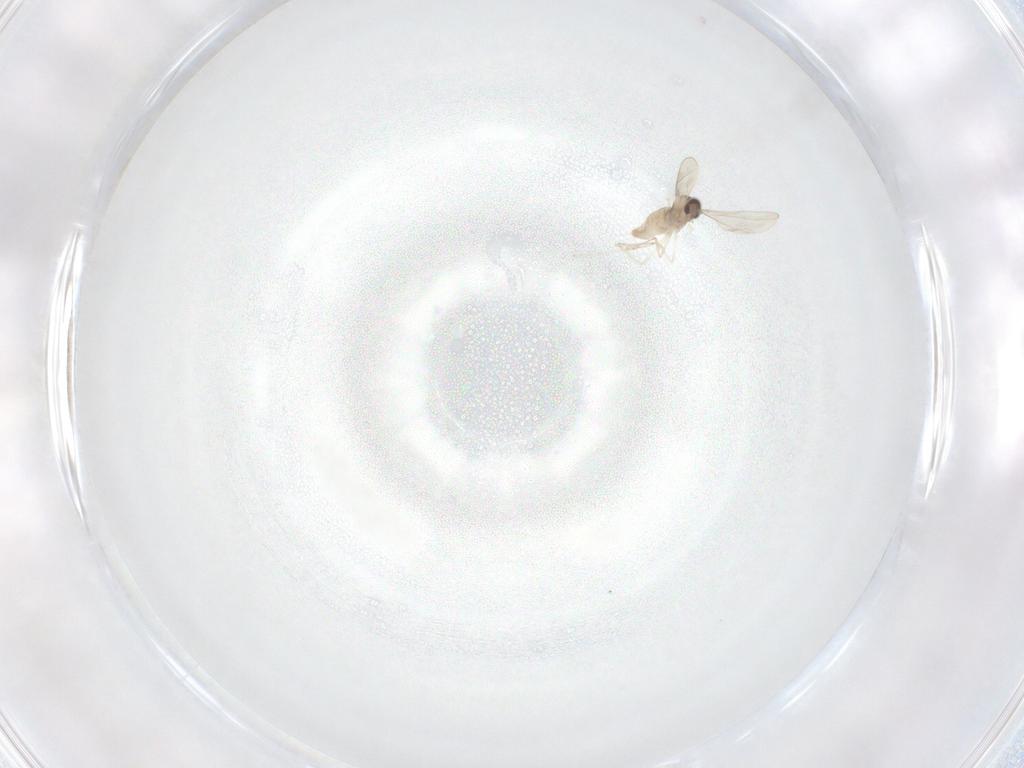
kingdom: Animalia
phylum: Arthropoda
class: Insecta
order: Diptera
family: Cecidomyiidae
